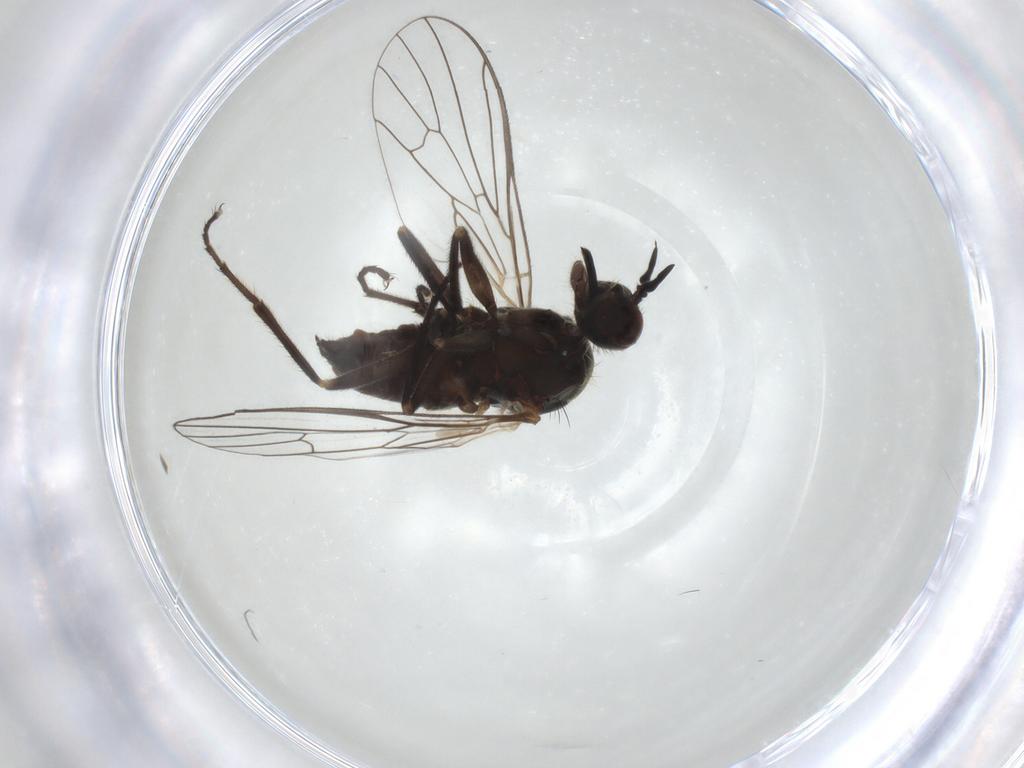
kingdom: Animalia
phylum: Arthropoda
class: Insecta
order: Diptera
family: Empididae
